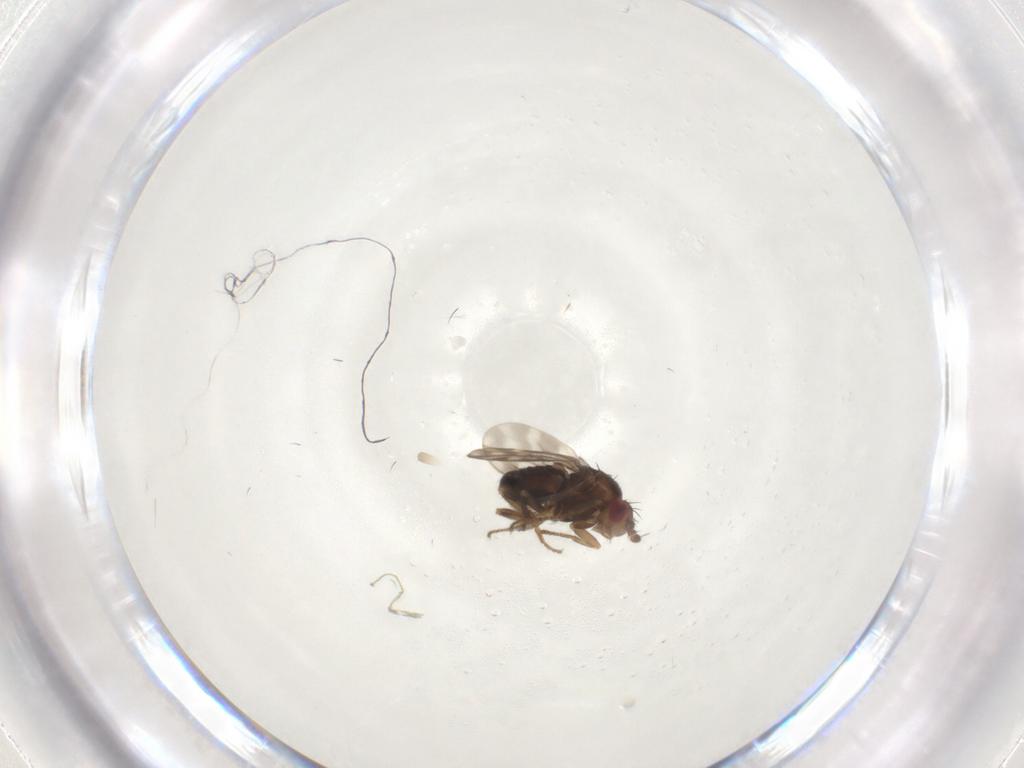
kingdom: Animalia
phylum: Arthropoda
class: Insecta
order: Diptera
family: Sphaeroceridae
